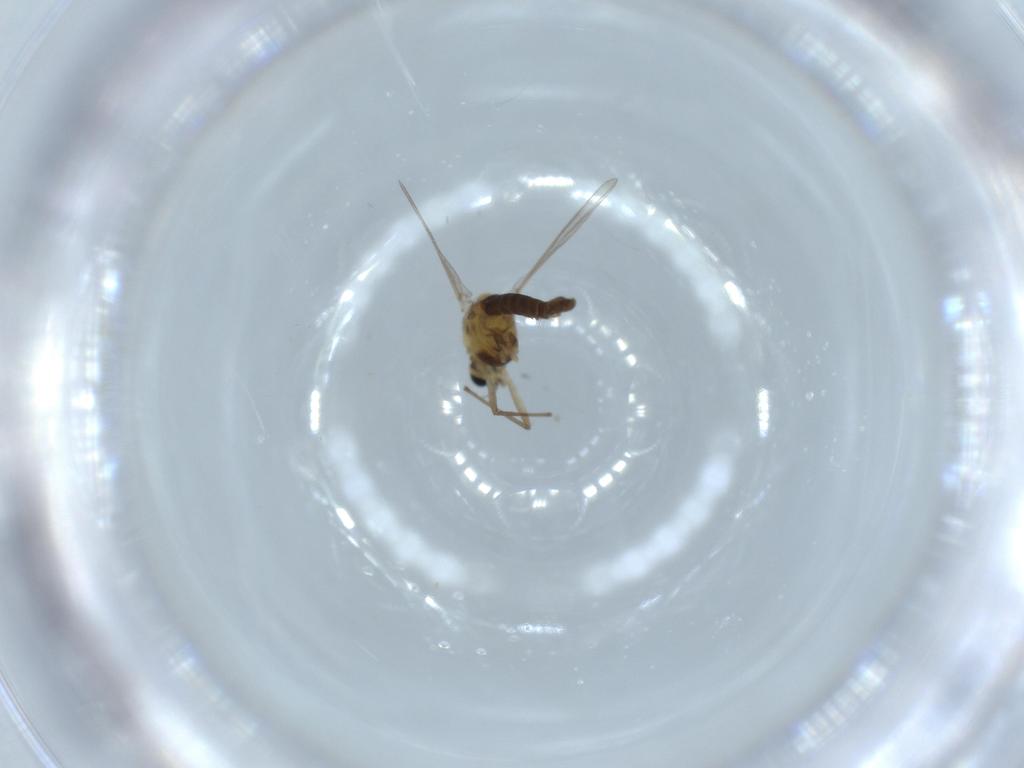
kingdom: Animalia
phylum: Arthropoda
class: Insecta
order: Diptera
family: Chironomidae
